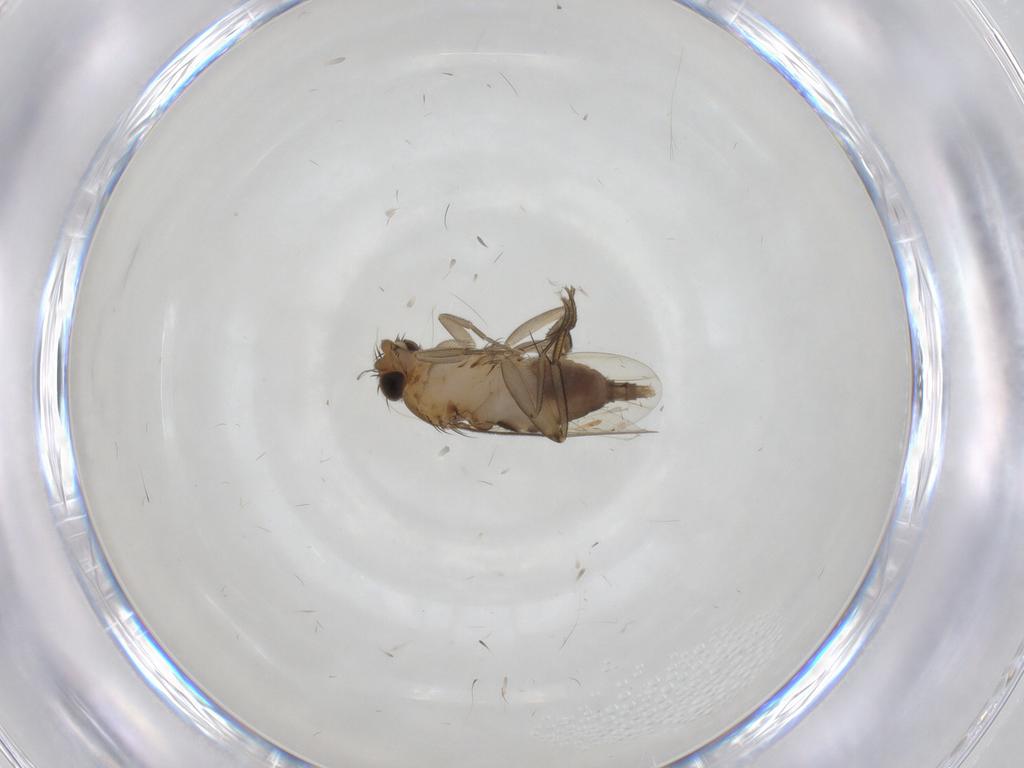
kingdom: Animalia
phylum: Arthropoda
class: Insecta
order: Diptera
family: Phoridae
